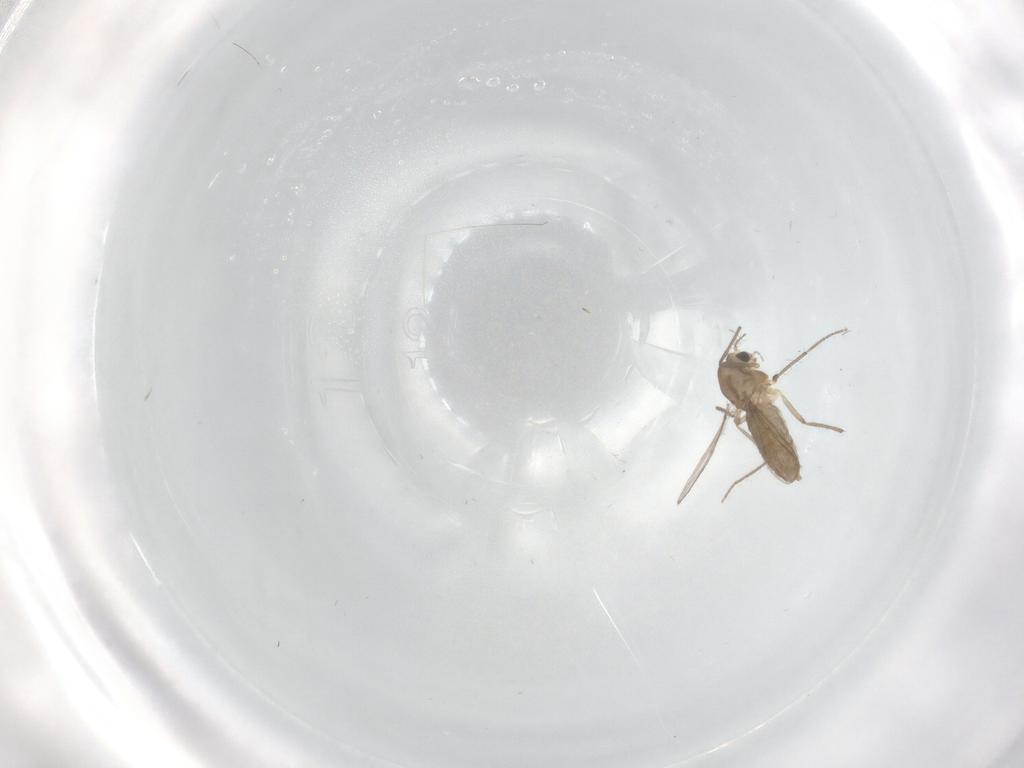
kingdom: Animalia
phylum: Arthropoda
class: Insecta
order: Diptera
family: Chironomidae
